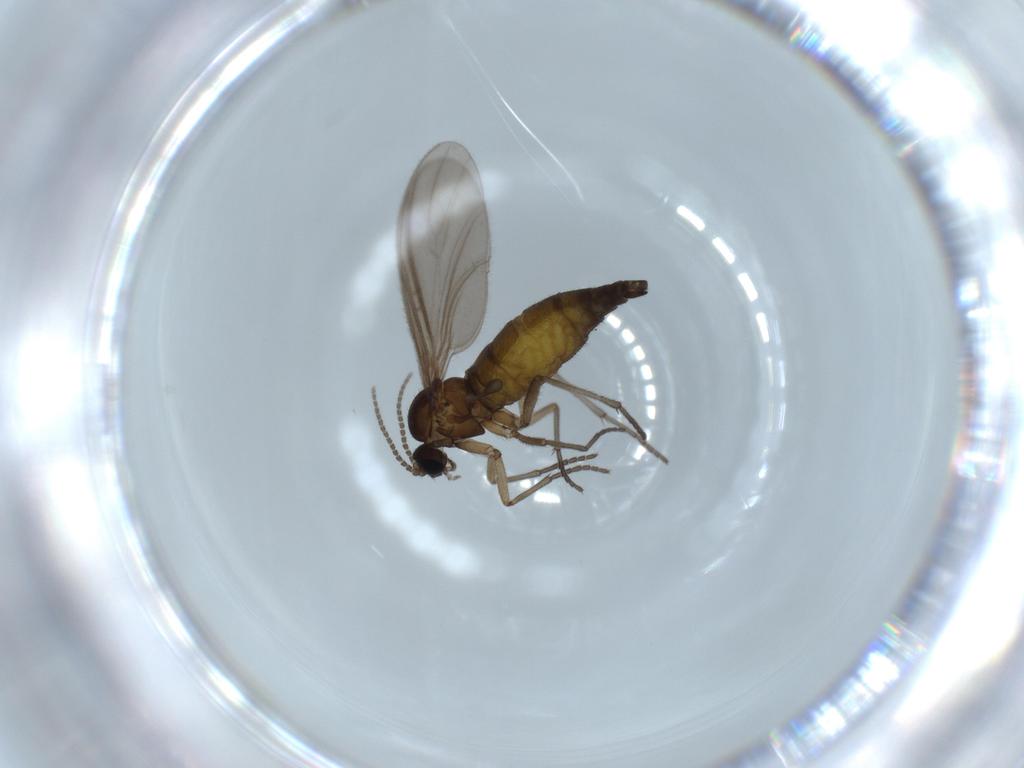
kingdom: Animalia
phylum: Arthropoda
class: Insecta
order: Diptera
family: Sciaridae
